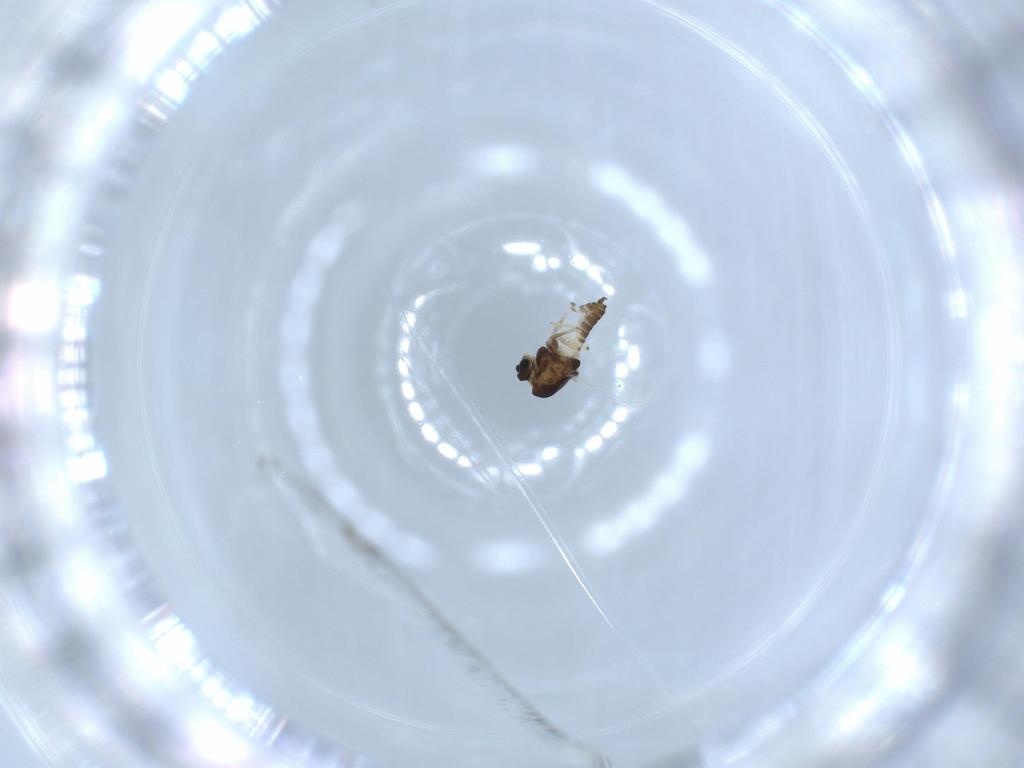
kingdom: Animalia
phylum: Arthropoda
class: Insecta
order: Diptera
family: Chironomidae
